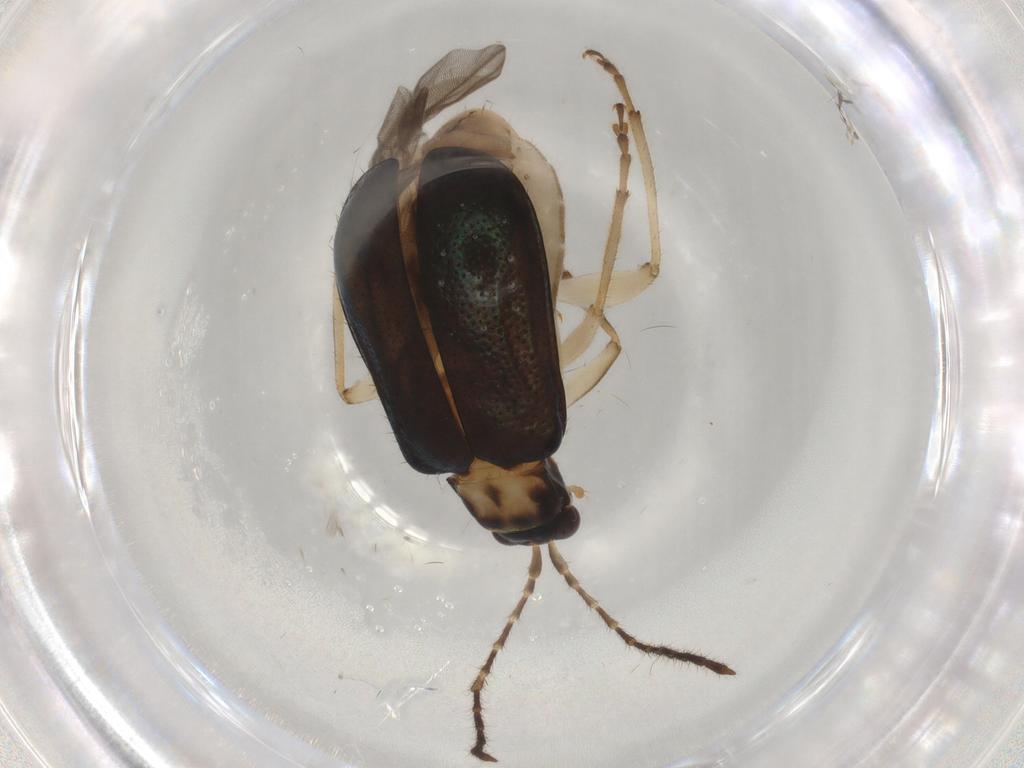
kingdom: Animalia
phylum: Arthropoda
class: Insecta
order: Coleoptera
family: Chrysomelidae
